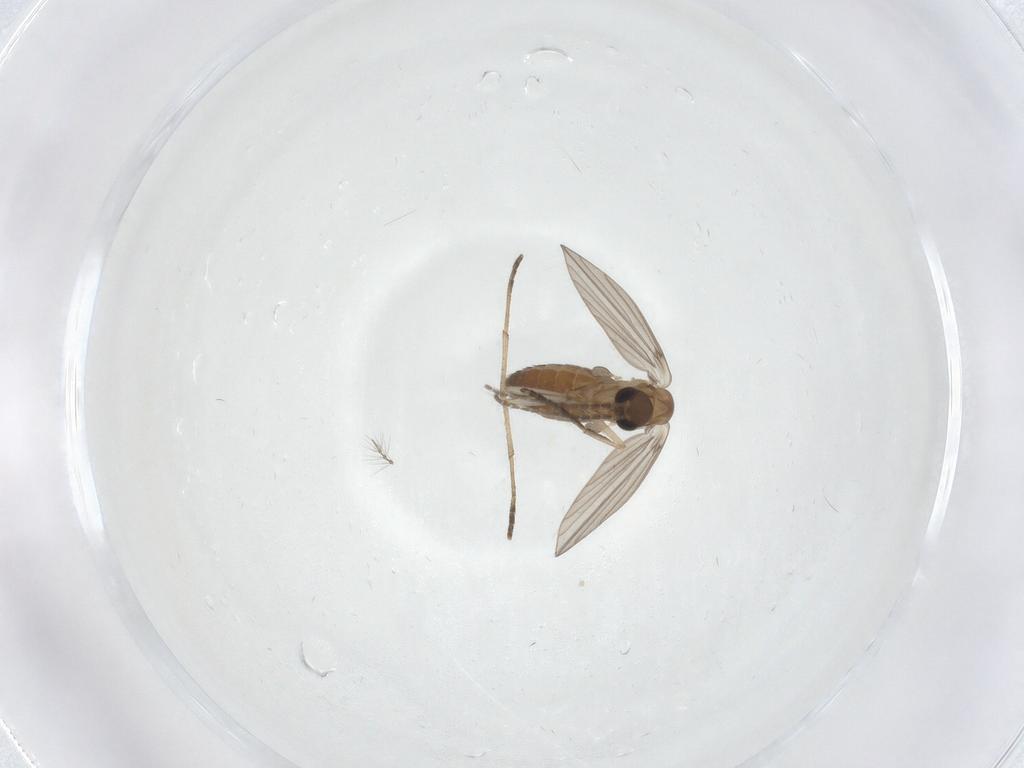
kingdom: Animalia
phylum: Arthropoda
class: Insecta
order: Diptera
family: Chironomidae
